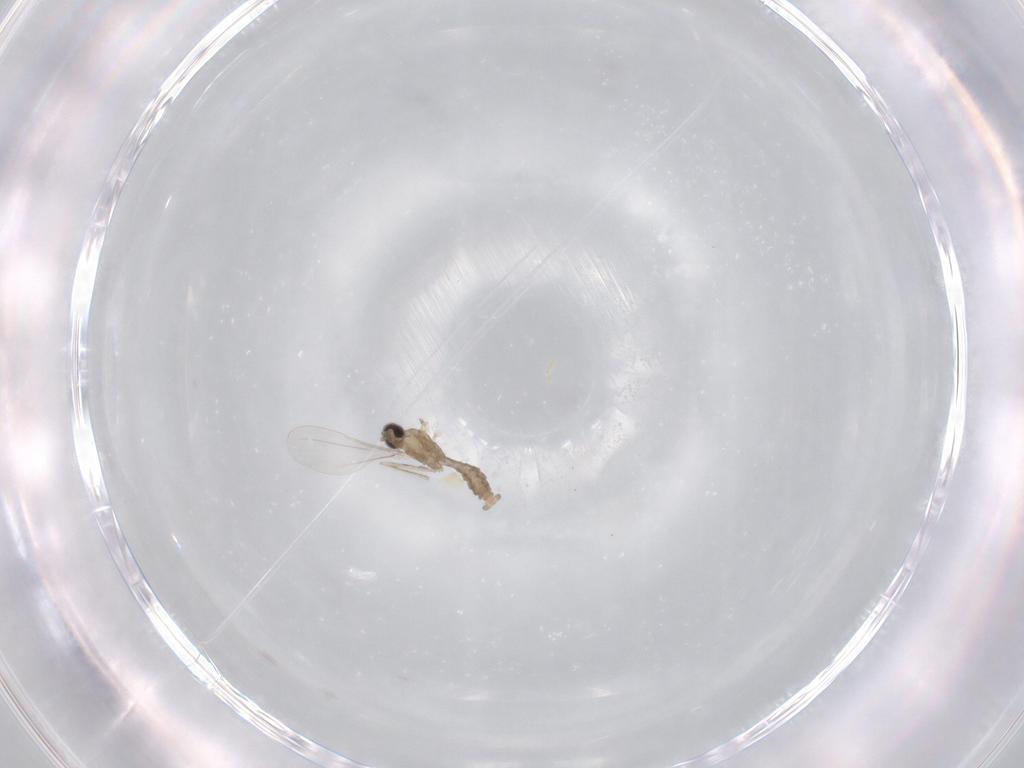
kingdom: Animalia
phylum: Arthropoda
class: Insecta
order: Diptera
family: Cecidomyiidae
